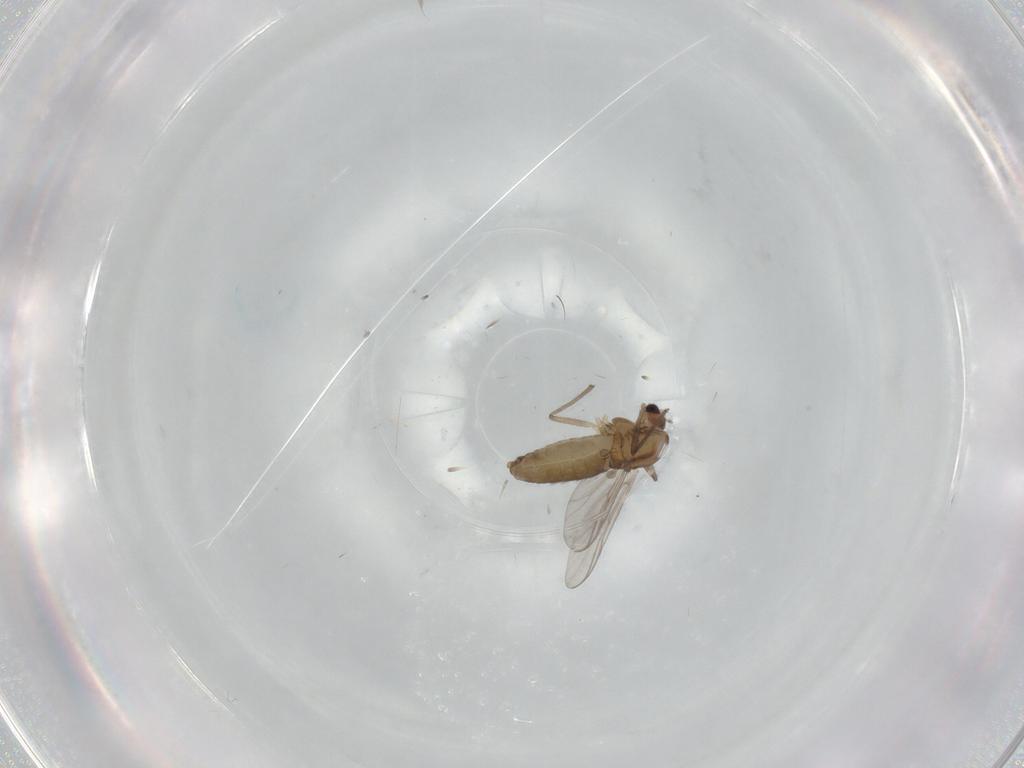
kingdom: Animalia
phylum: Arthropoda
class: Insecta
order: Diptera
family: Chironomidae
